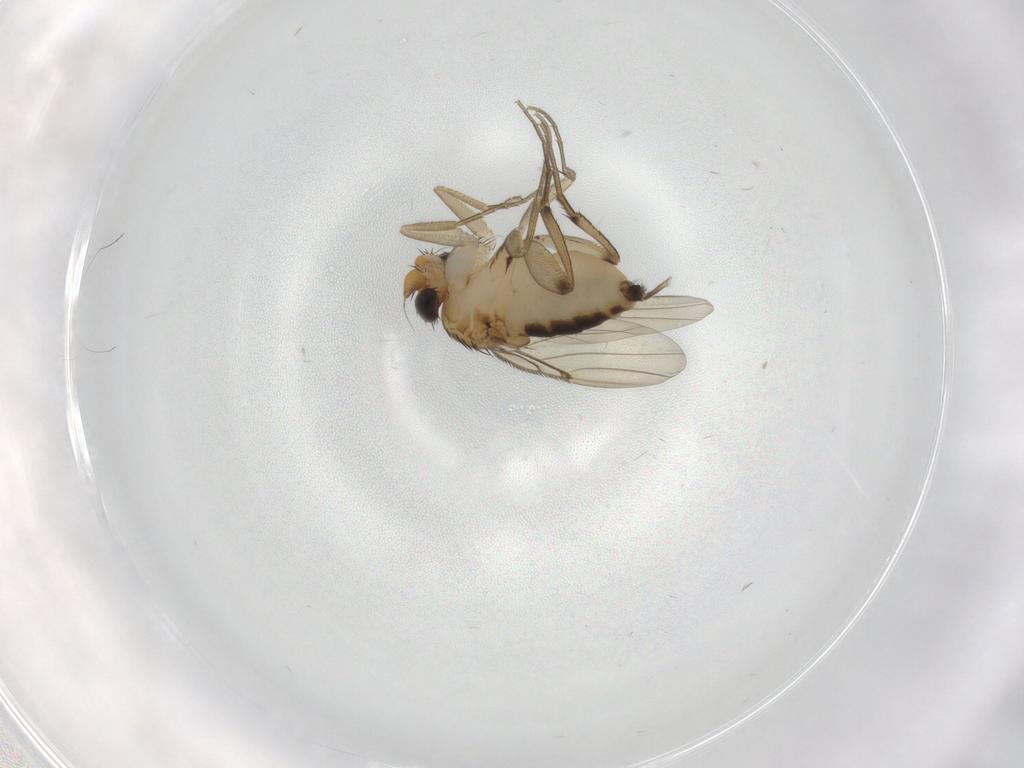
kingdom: Animalia
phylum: Arthropoda
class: Insecta
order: Diptera
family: Phoridae
